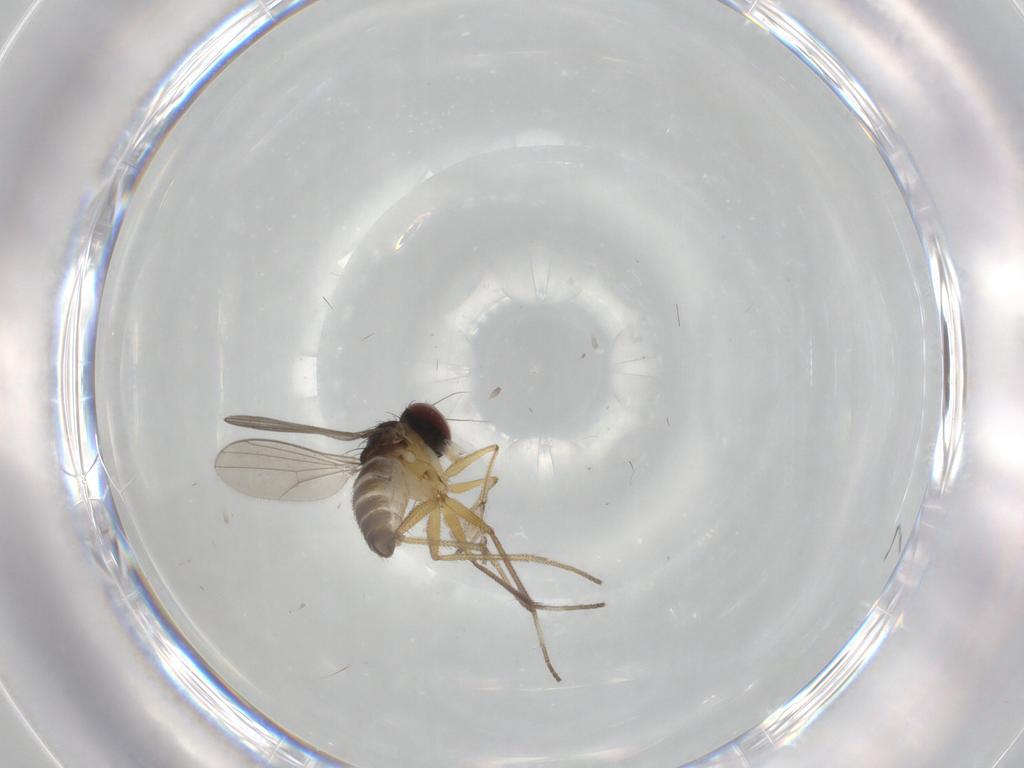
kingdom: Animalia
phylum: Arthropoda
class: Insecta
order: Diptera
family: Dolichopodidae
